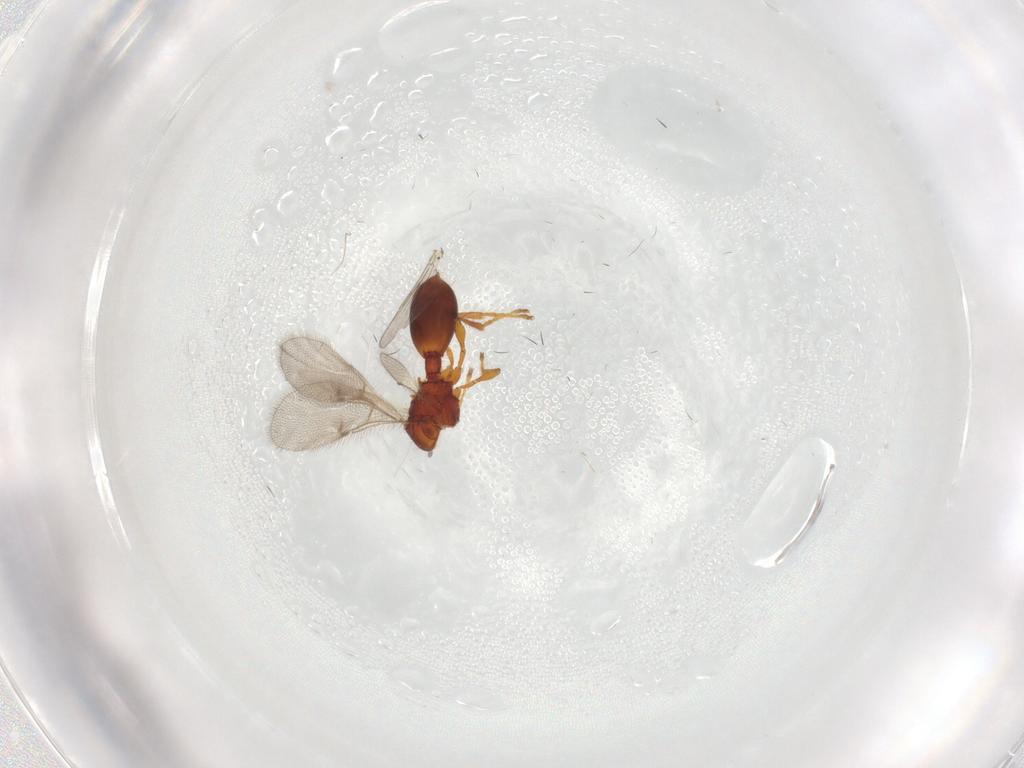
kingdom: Animalia
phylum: Arthropoda
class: Insecta
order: Hymenoptera
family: Diapriidae
